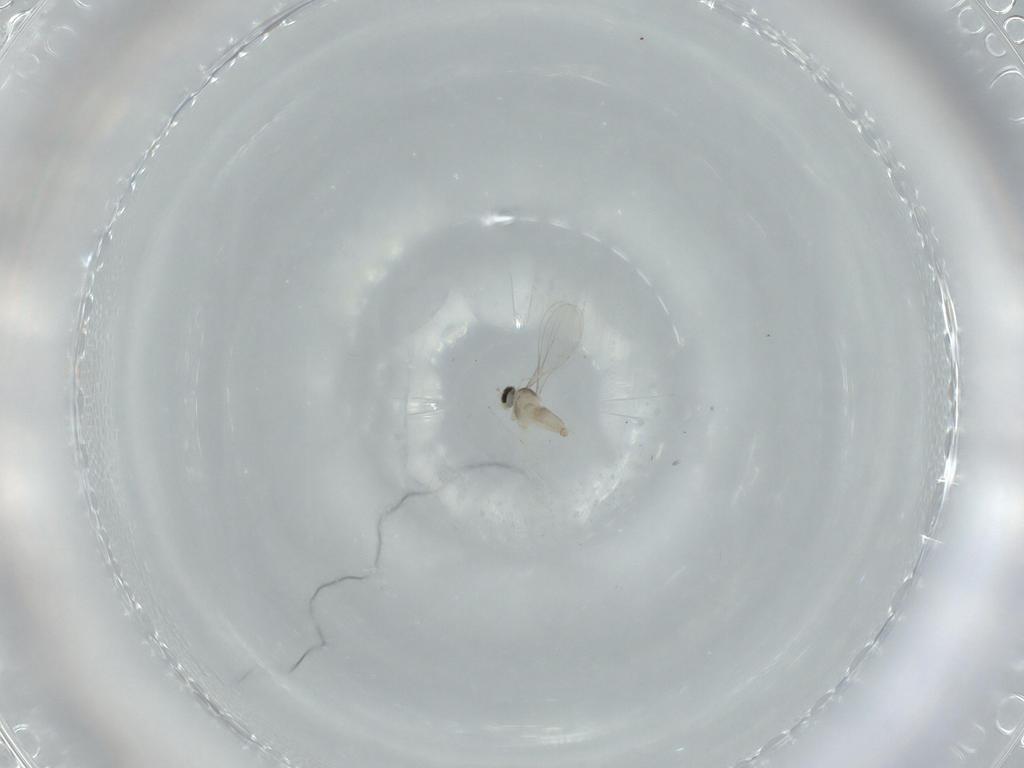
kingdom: Animalia
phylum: Arthropoda
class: Insecta
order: Diptera
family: Cecidomyiidae
